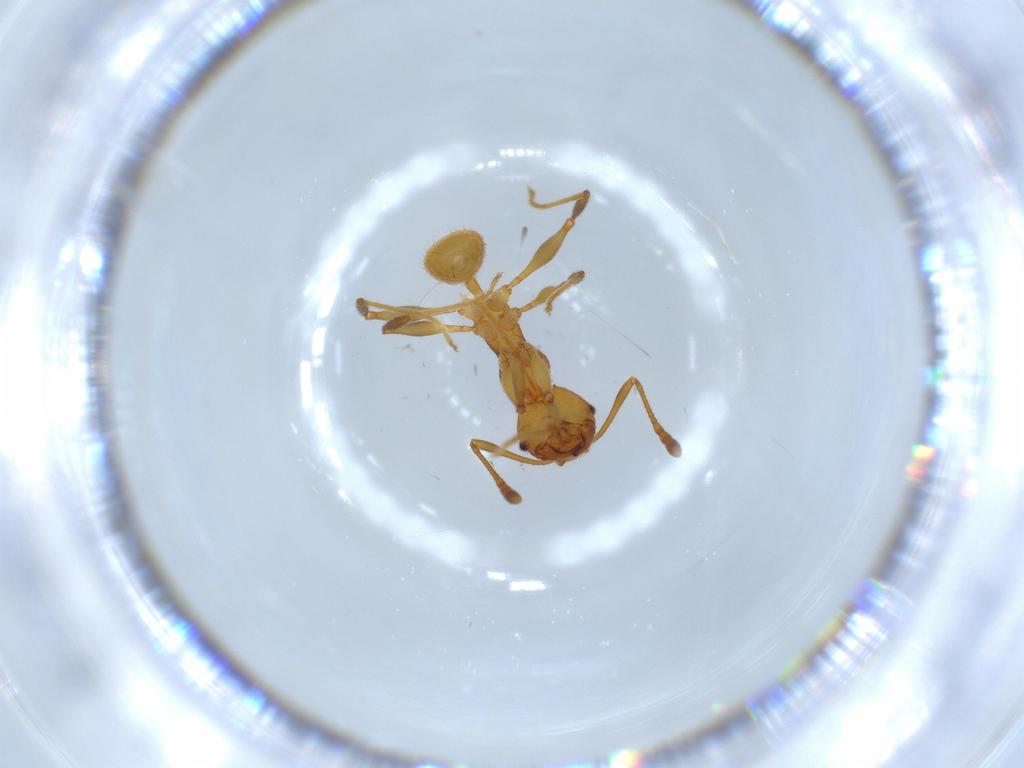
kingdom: Animalia
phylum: Arthropoda
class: Insecta
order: Hymenoptera
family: Formicidae
